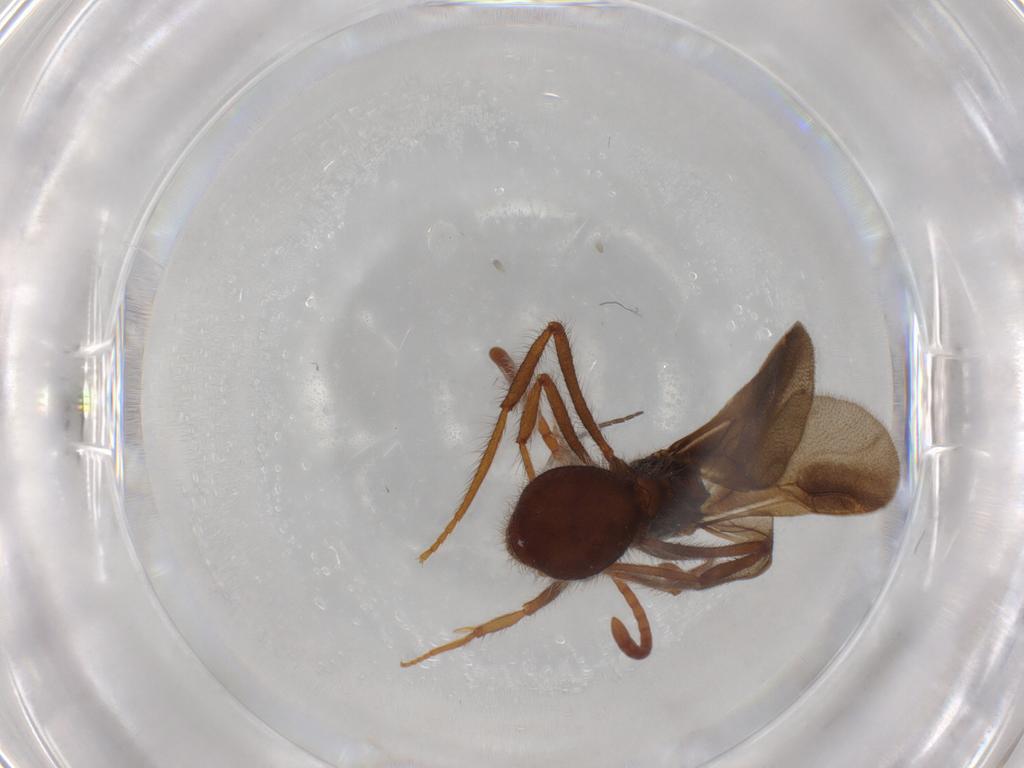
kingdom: Animalia
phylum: Arthropoda
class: Insecta
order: Hymenoptera
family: Formicidae
